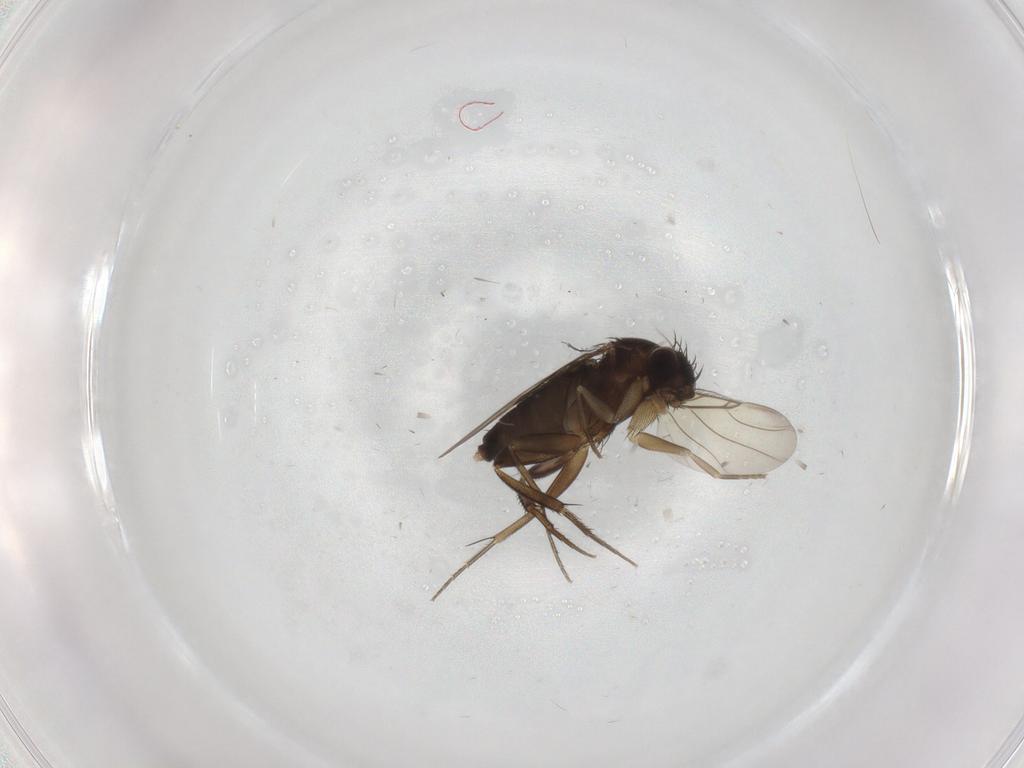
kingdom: Animalia
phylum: Arthropoda
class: Insecta
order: Diptera
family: Phoridae
